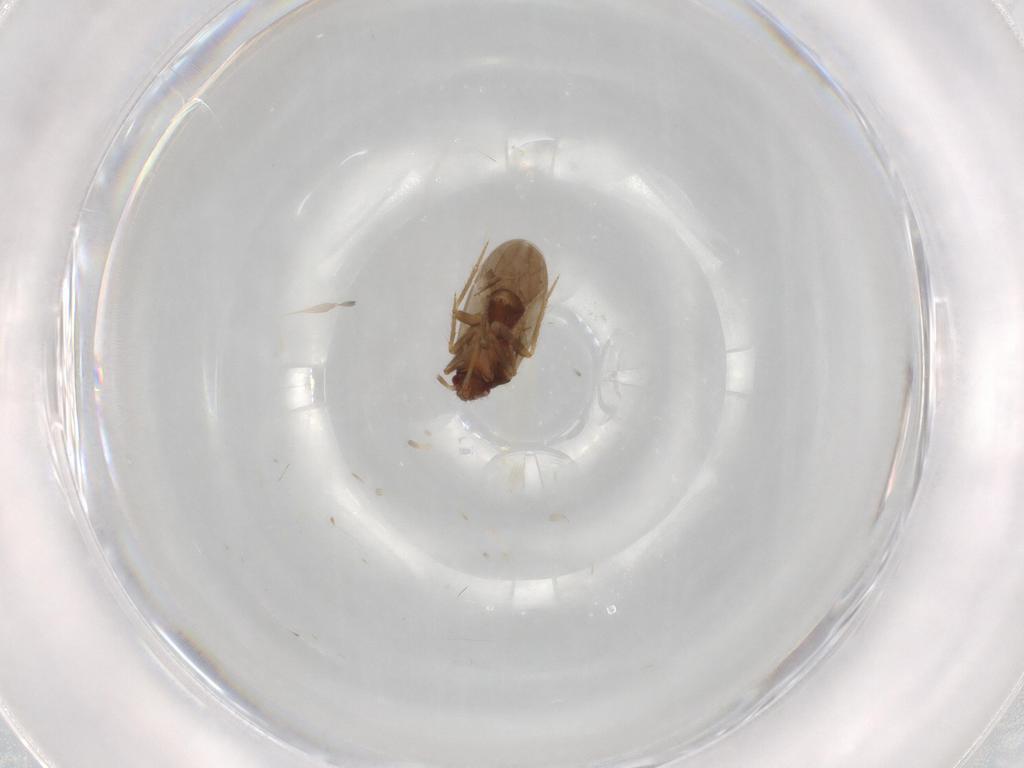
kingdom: Animalia
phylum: Arthropoda
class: Insecta
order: Hemiptera
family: Ceratocombidae
